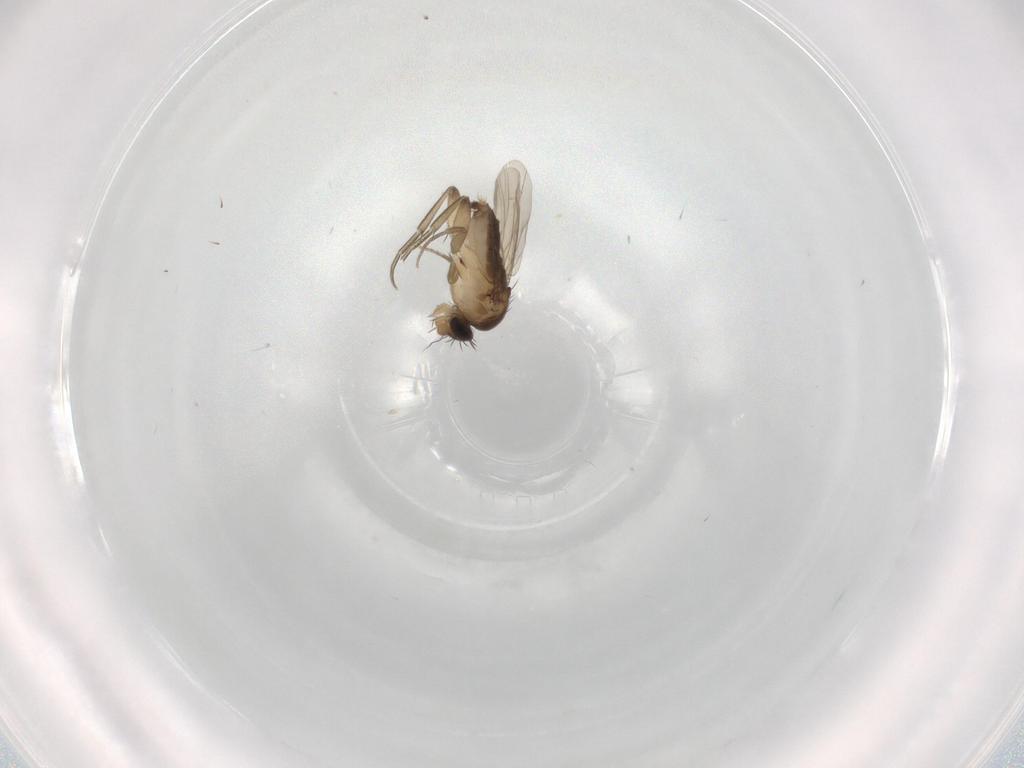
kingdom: Animalia
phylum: Arthropoda
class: Insecta
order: Diptera
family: Phoridae
